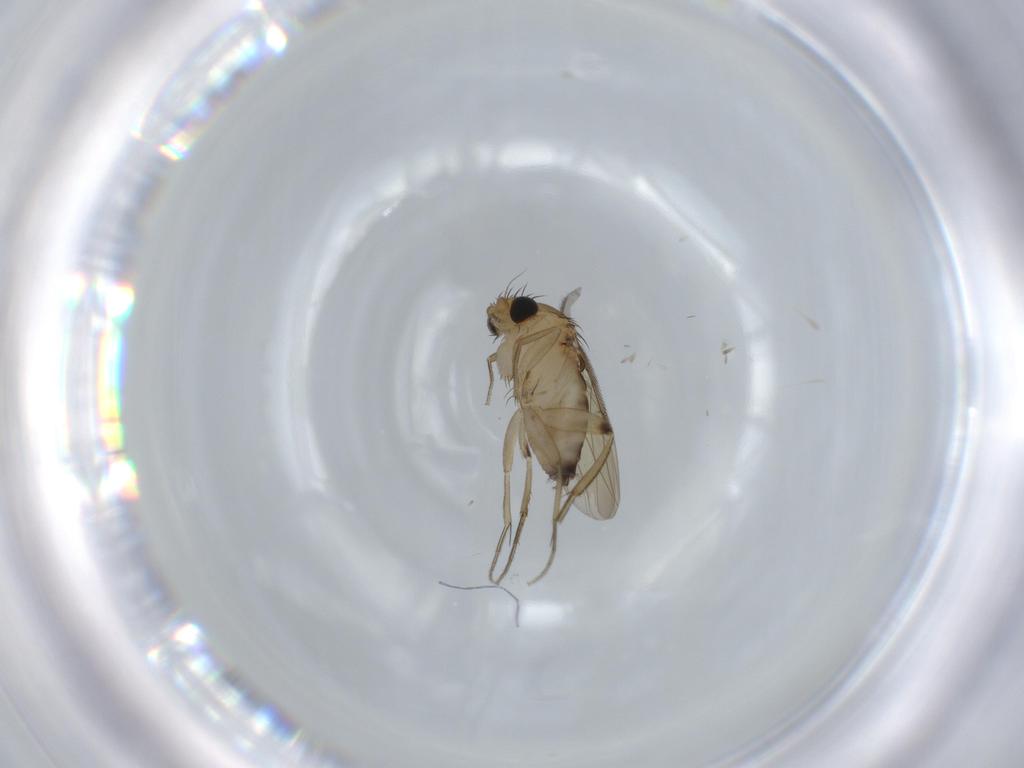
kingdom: Animalia
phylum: Arthropoda
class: Insecta
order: Diptera
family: Phoridae
